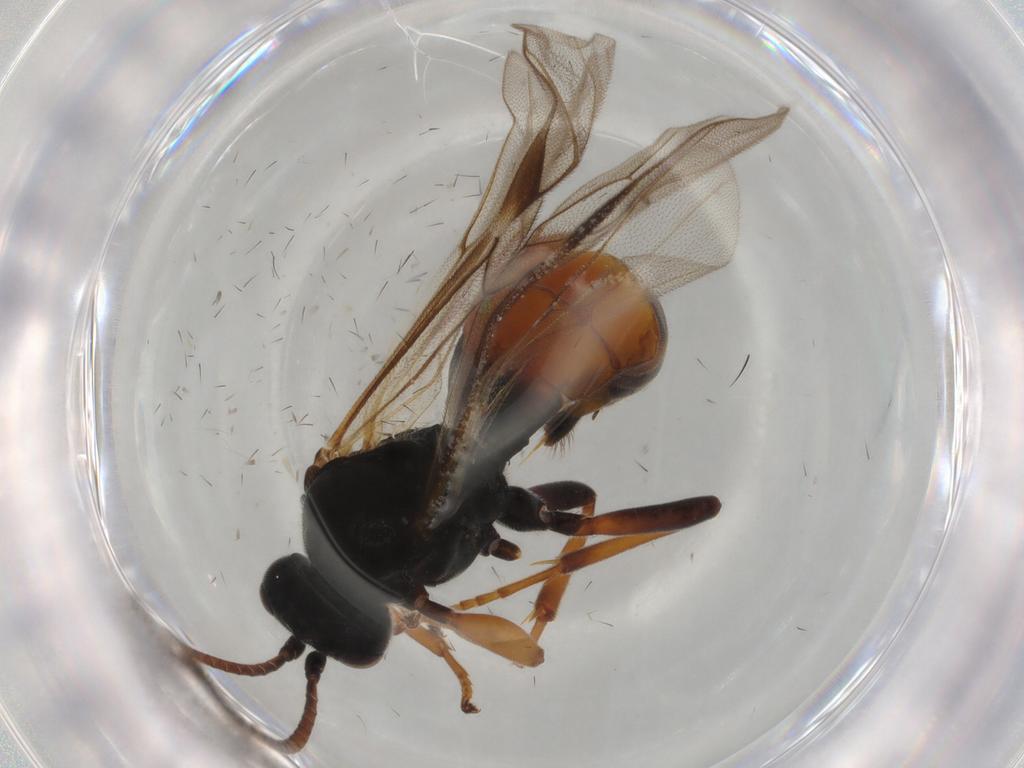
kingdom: Animalia
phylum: Arthropoda
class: Insecta
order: Hymenoptera
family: Ichneumonidae
